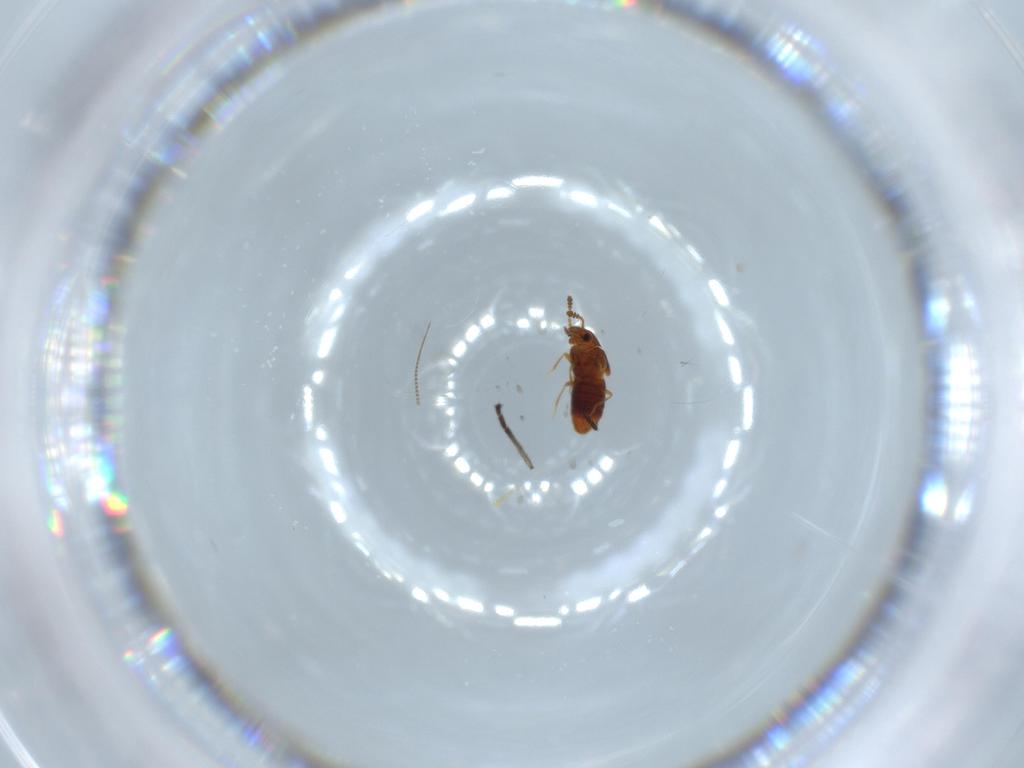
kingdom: Animalia
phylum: Arthropoda
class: Insecta
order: Coleoptera
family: Staphylinidae
